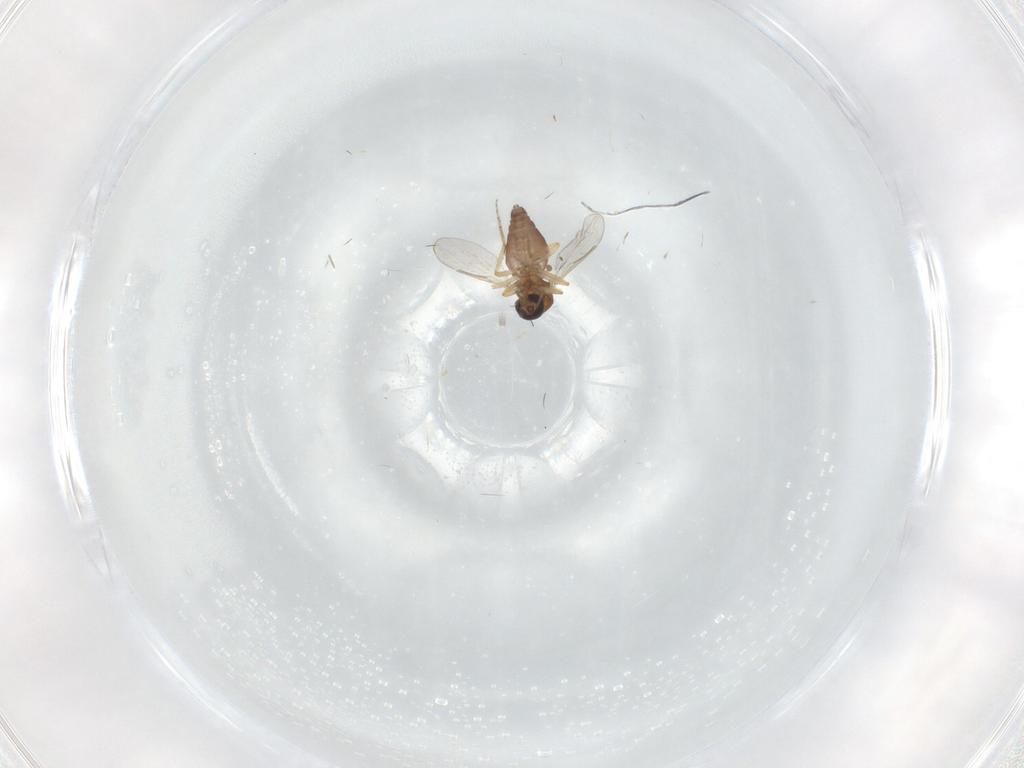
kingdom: Animalia
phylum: Arthropoda
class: Insecta
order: Diptera
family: Ceratopogonidae
